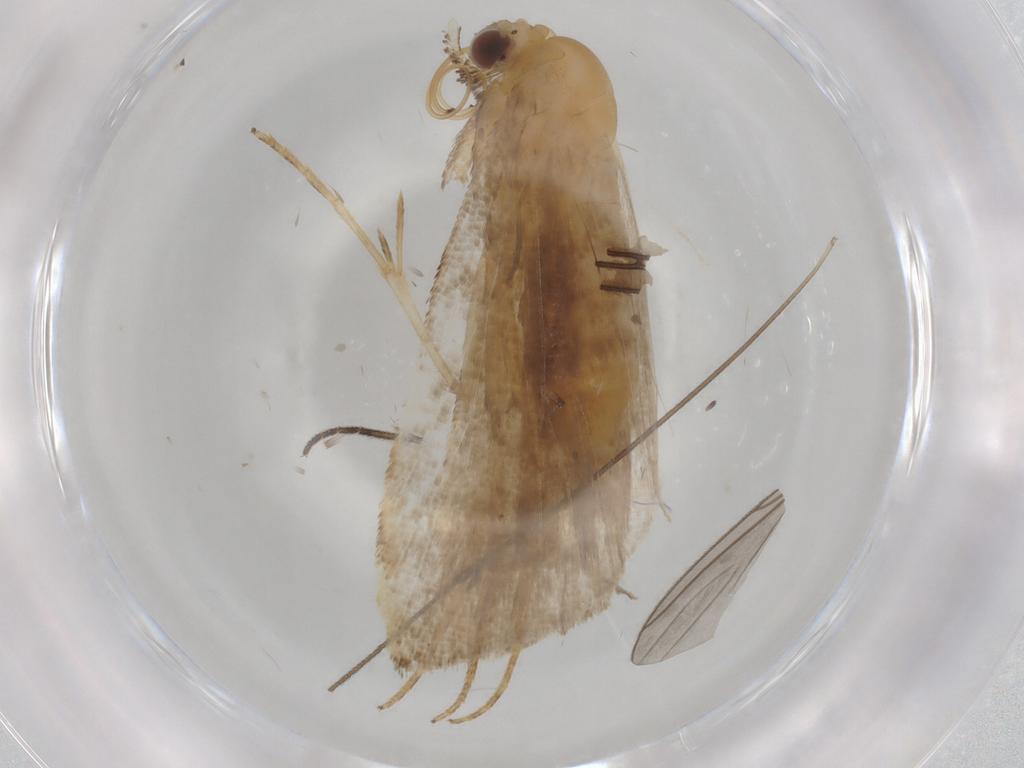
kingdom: Animalia
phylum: Arthropoda
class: Insecta
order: Lepidoptera
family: Erebidae
